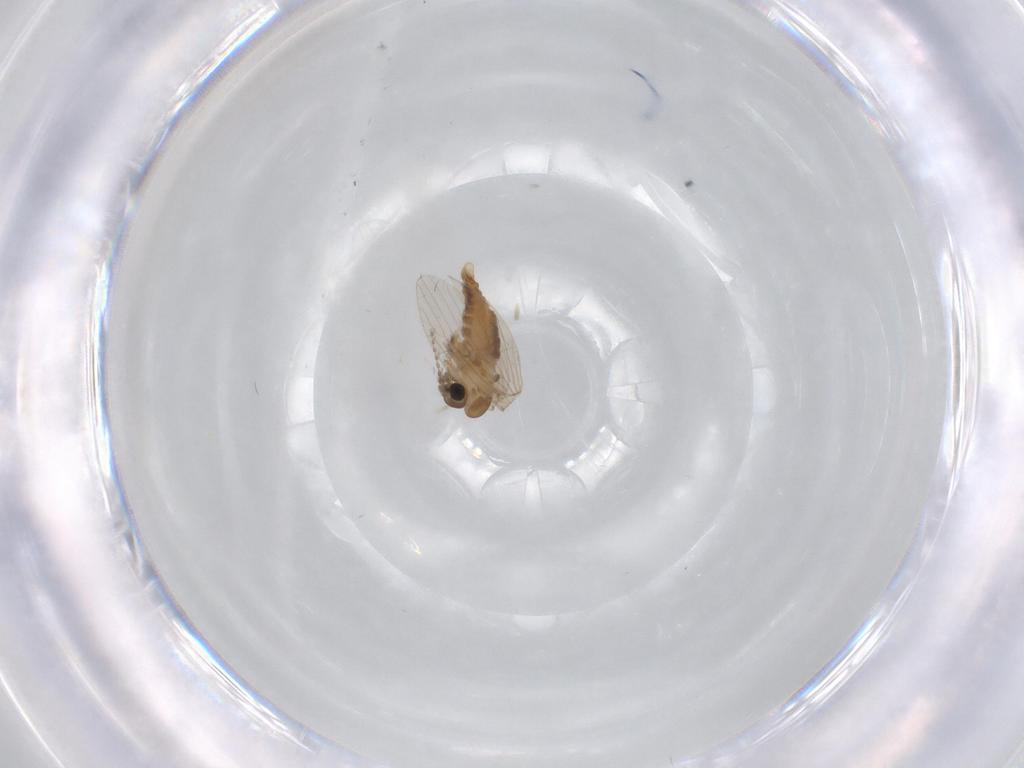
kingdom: Animalia
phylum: Arthropoda
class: Insecta
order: Diptera
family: Psychodidae
